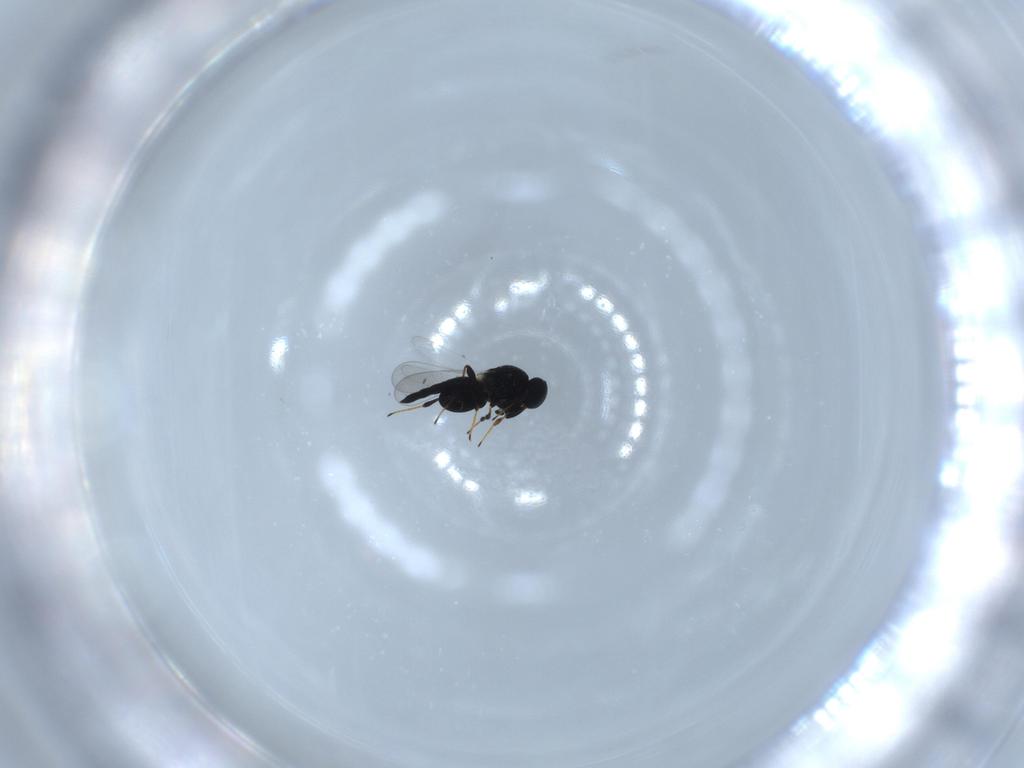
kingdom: Animalia
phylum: Arthropoda
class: Insecta
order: Hymenoptera
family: Platygastridae
